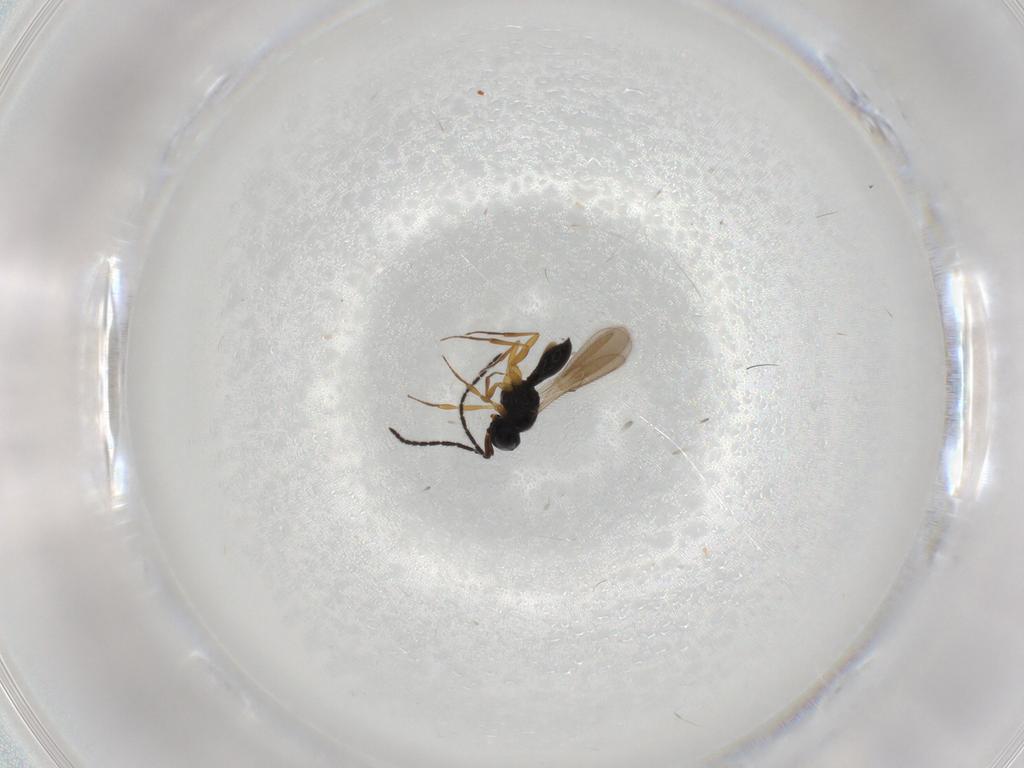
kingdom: Animalia
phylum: Arthropoda
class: Insecta
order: Hymenoptera
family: Scelionidae
